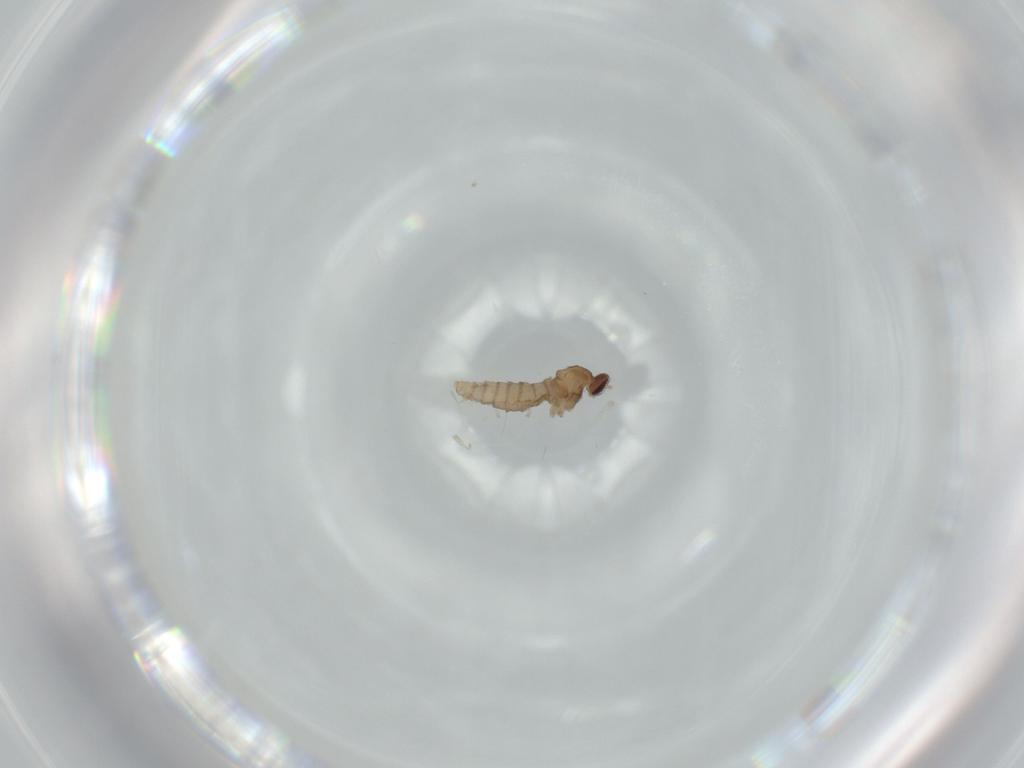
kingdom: Animalia
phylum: Arthropoda
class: Insecta
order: Diptera
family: Cecidomyiidae
